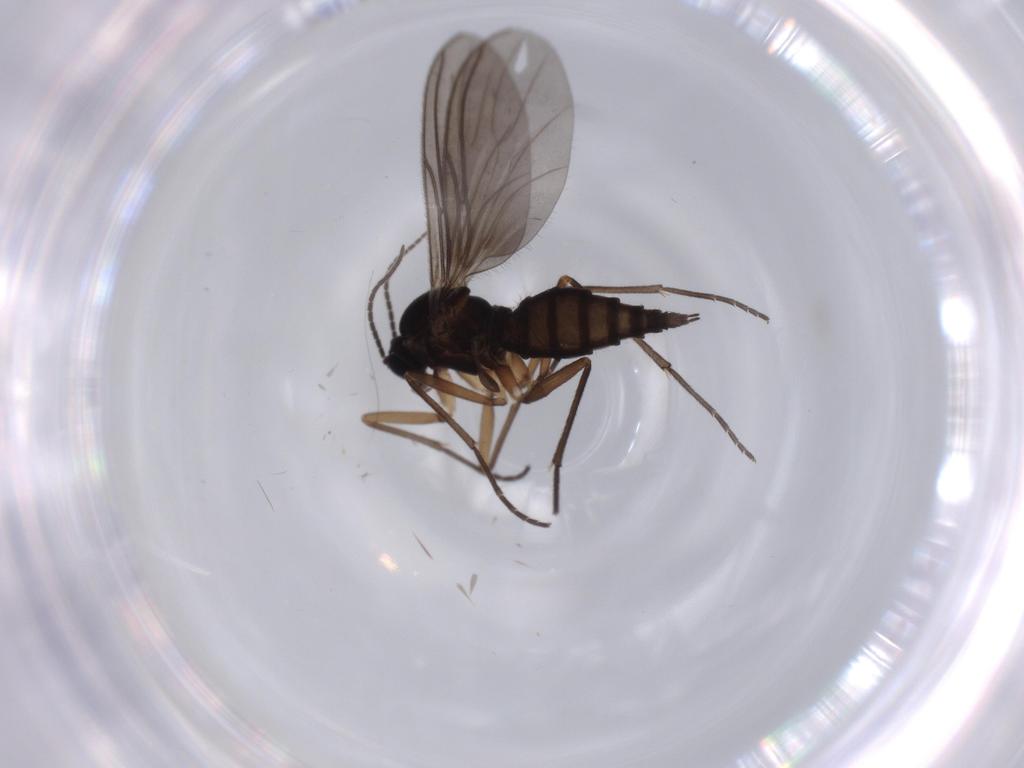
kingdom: Animalia
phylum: Arthropoda
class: Insecta
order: Diptera
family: Sciaridae
